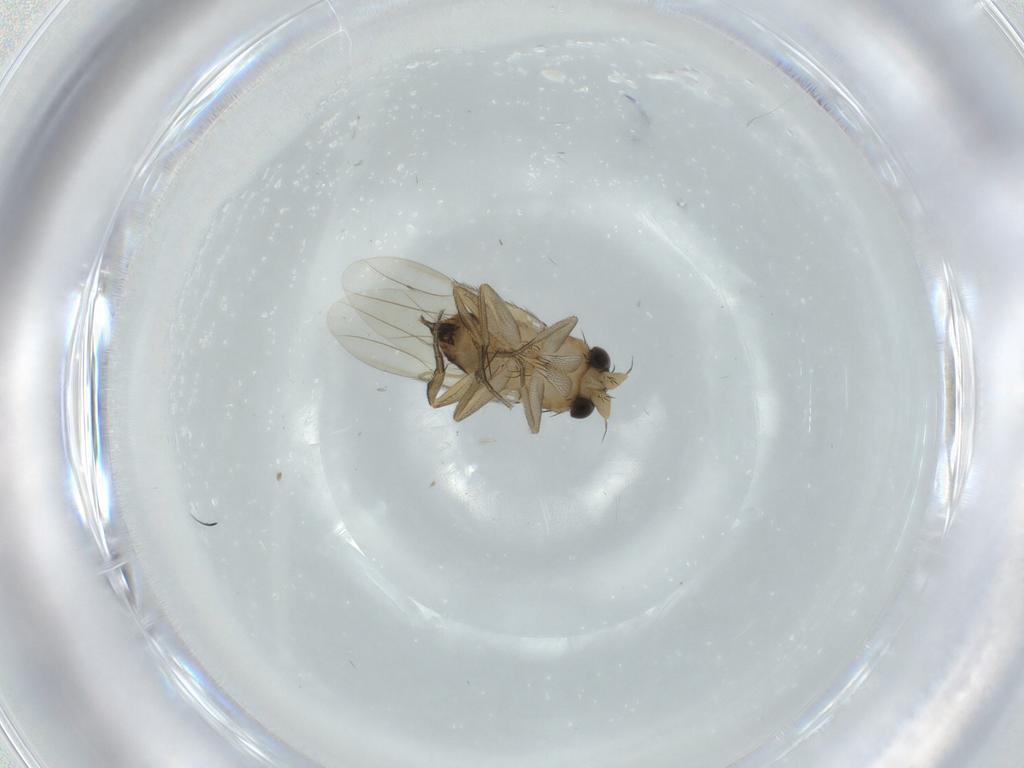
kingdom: Animalia
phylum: Arthropoda
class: Insecta
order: Diptera
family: Phoridae
